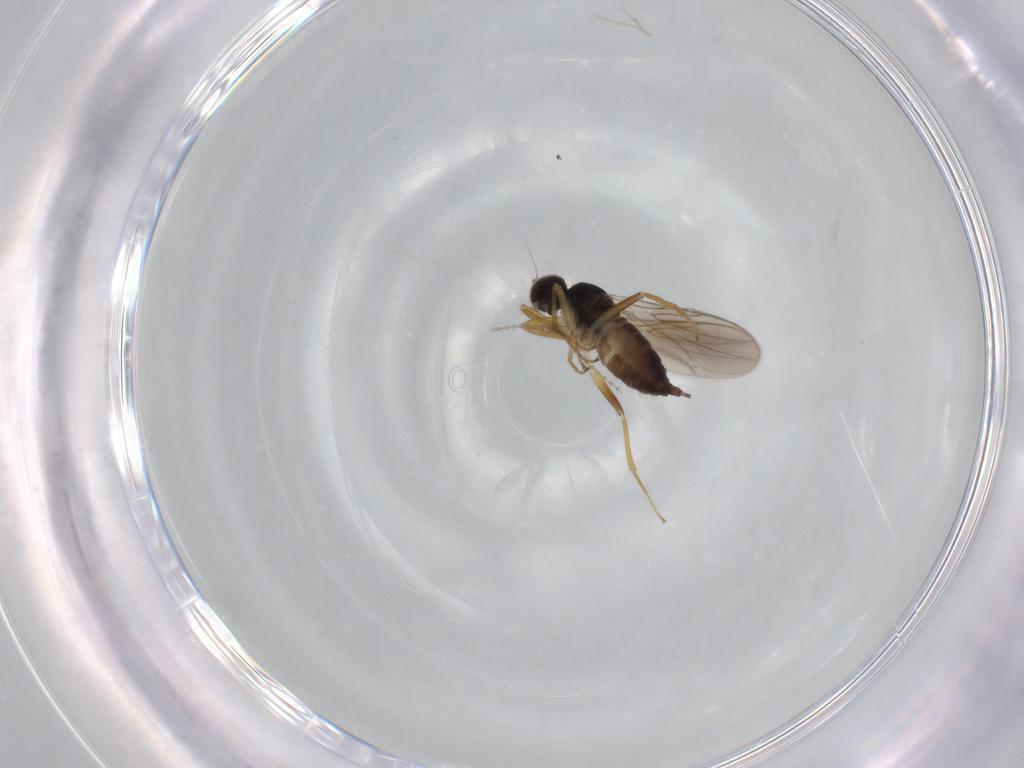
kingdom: Animalia
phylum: Arthropoda
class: Insecta
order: Diptera
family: Hybotidae
